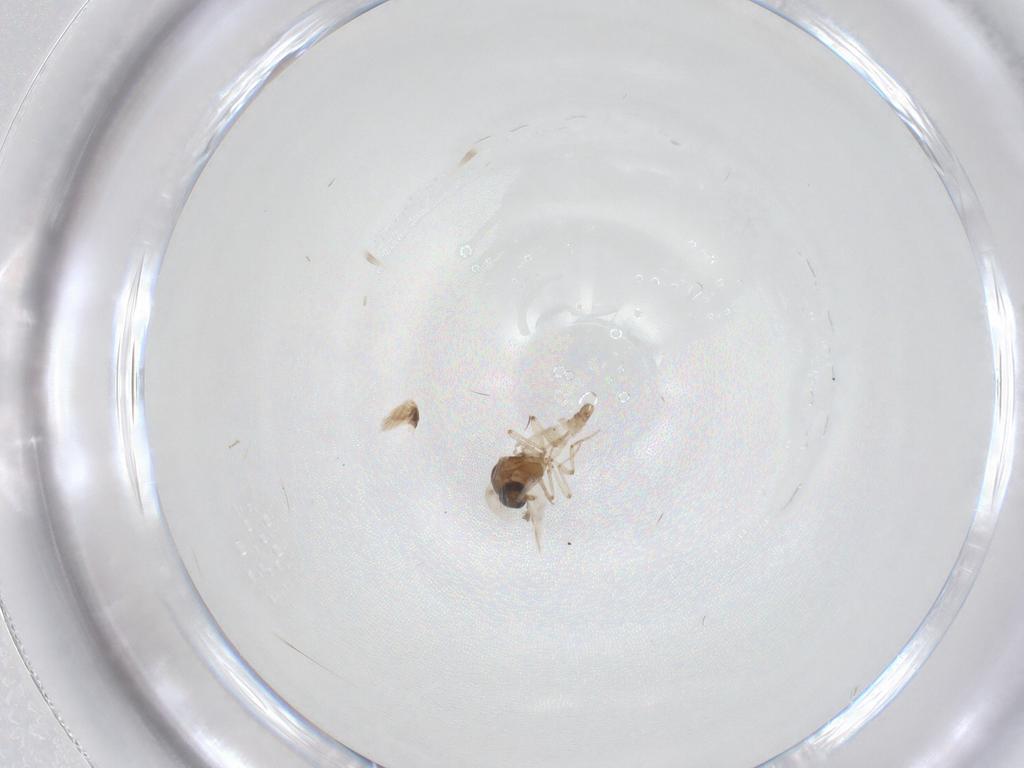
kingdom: Animalia
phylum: Arthropoda
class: Insecta
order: Diptera
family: Ceratopogonidae
